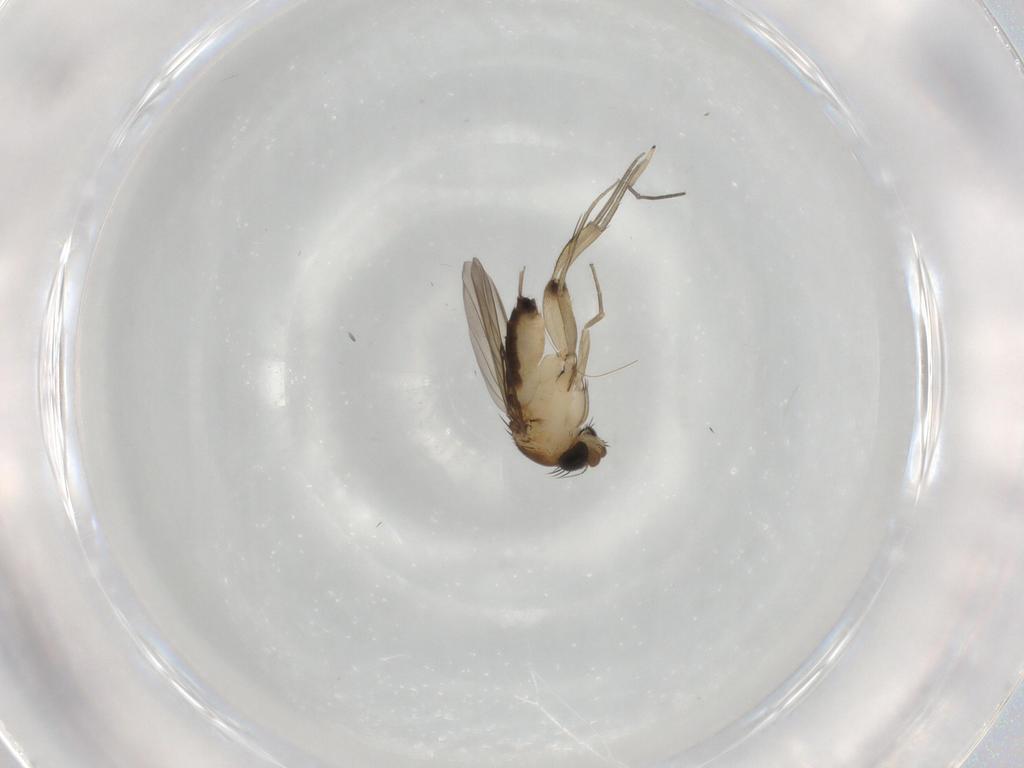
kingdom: Animalia
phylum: Arthropoda
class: Insecta
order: Diptera
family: Phoridae
